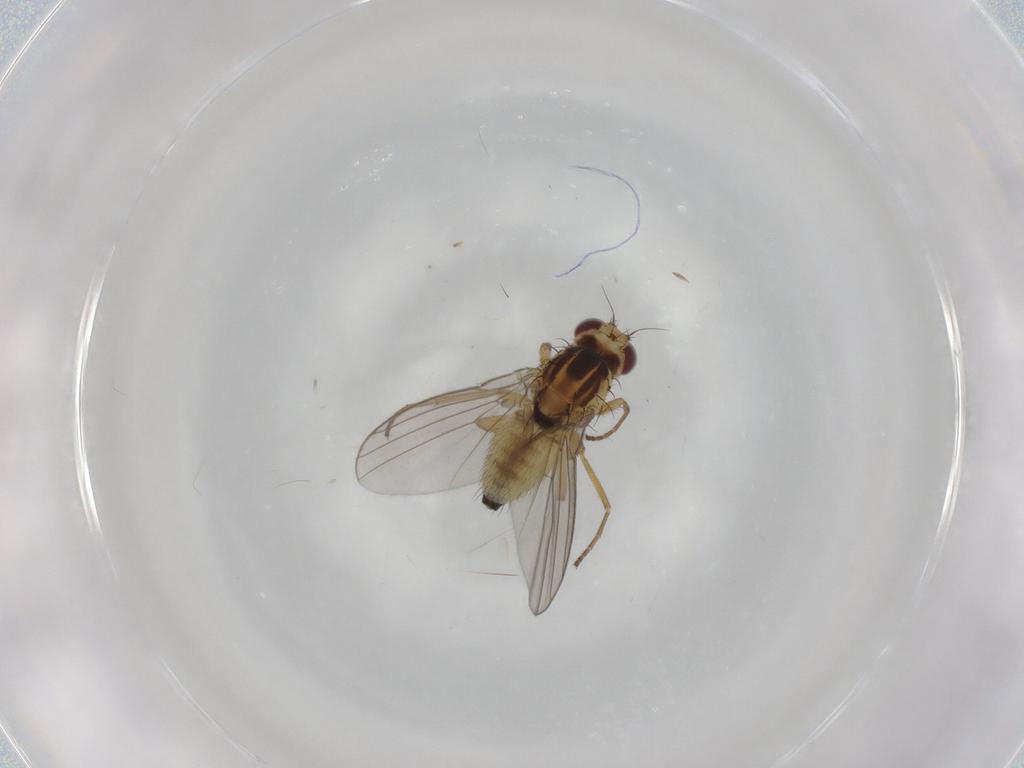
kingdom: Animalia
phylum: Arthropoda
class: Insecta
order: Diptera
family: Agromyzidae
